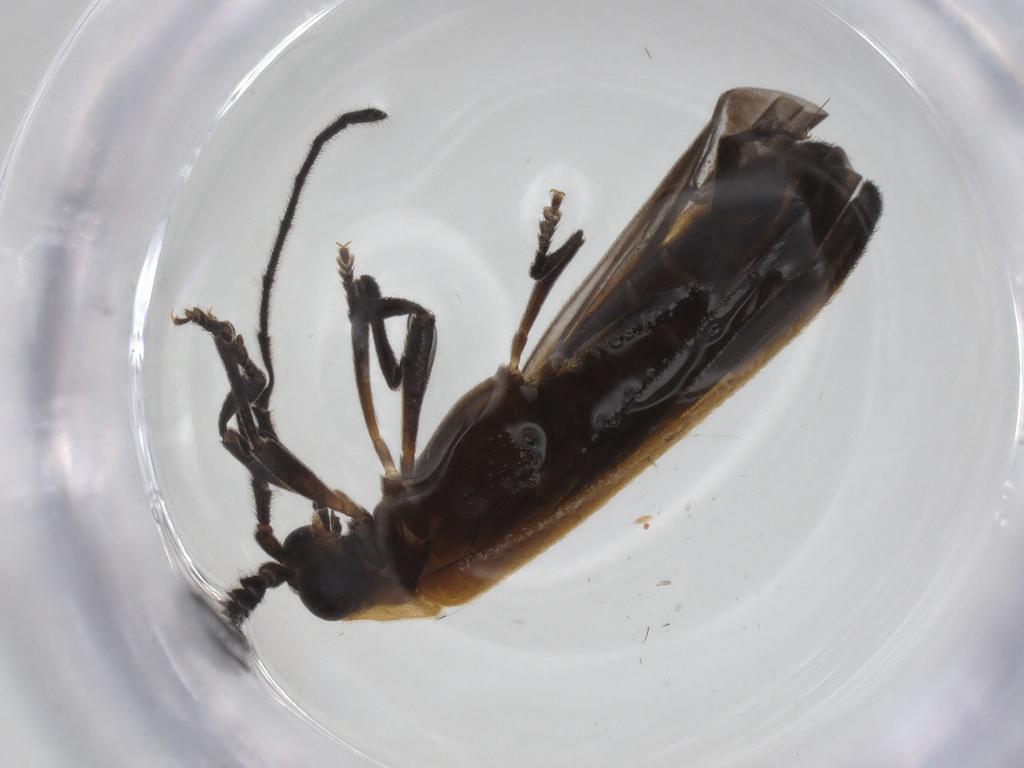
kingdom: Animalia
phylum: Arthropoda
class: Insecta
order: Coleoptera
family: Lycidae
